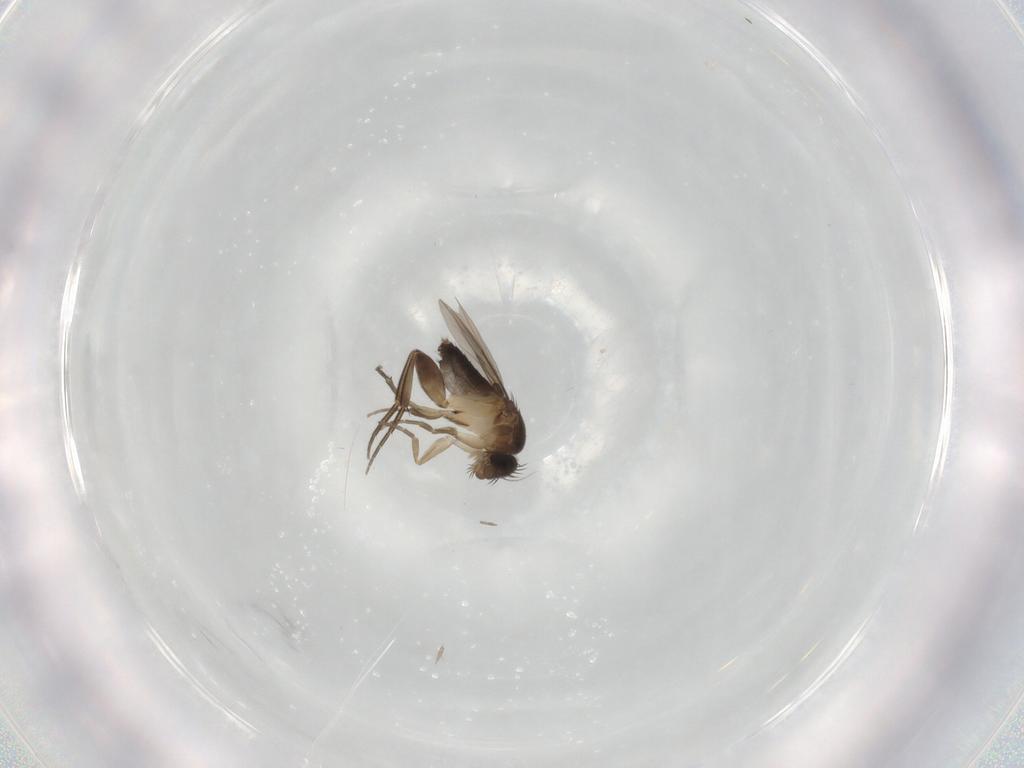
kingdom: Animalia
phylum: Arthropoda
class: Insecta
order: Diptera
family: Phoridae
